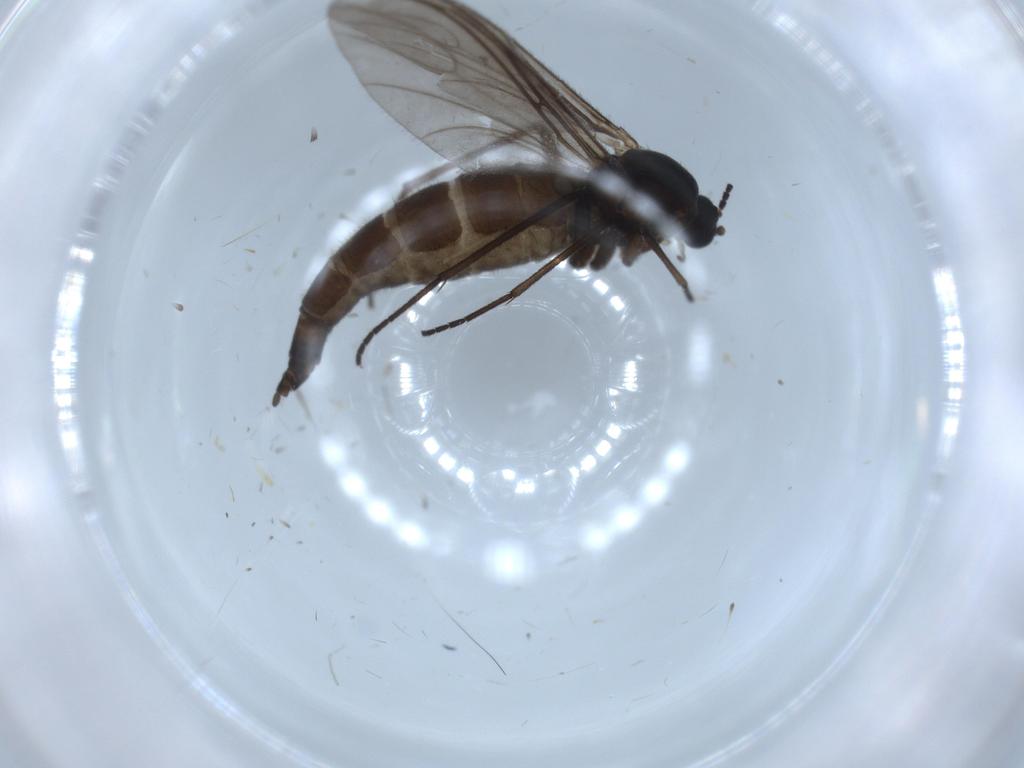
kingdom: Animalia
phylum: Arthropoda
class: Insecta
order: Diptera
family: Sciaridae
